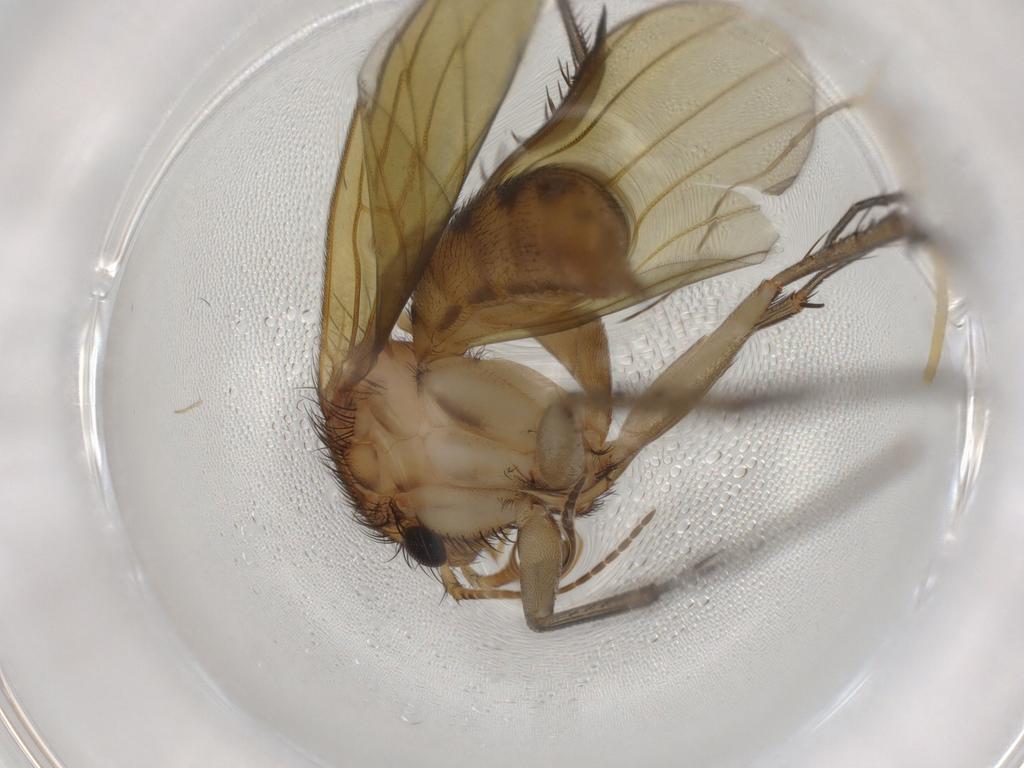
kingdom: Animalia
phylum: Arthropoda
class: Insecta
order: Diptera
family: Mycetophilidae
